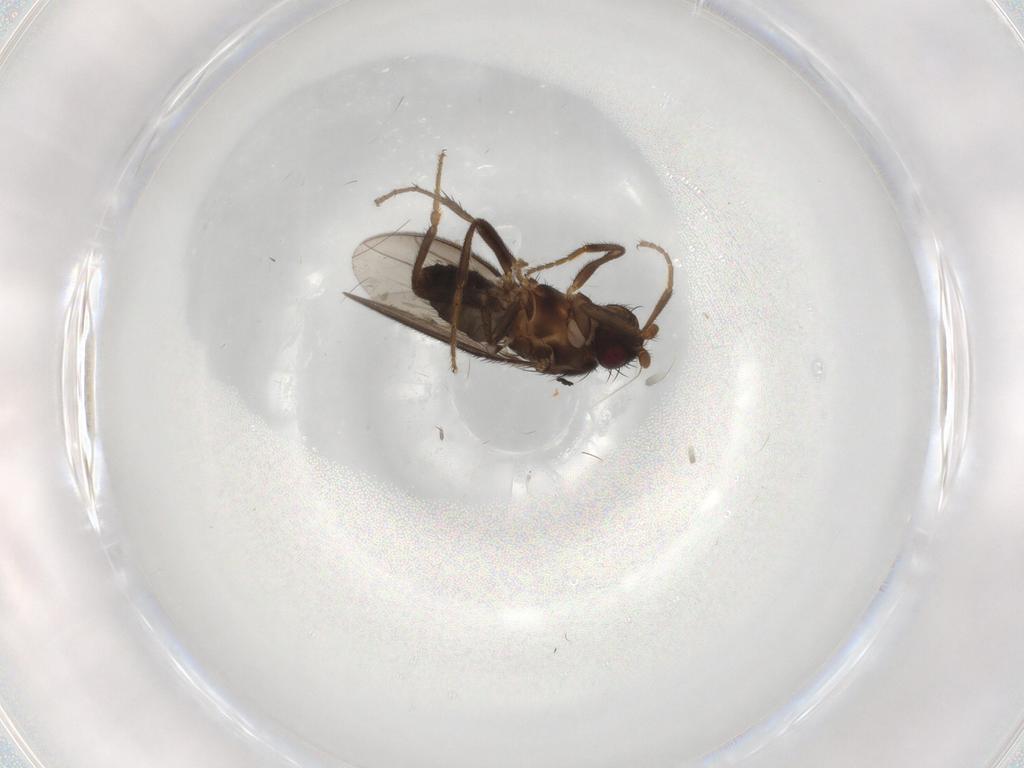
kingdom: Animalia
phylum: Arthropoda
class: Insecta
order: Diptera
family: Sphaeroceridae
